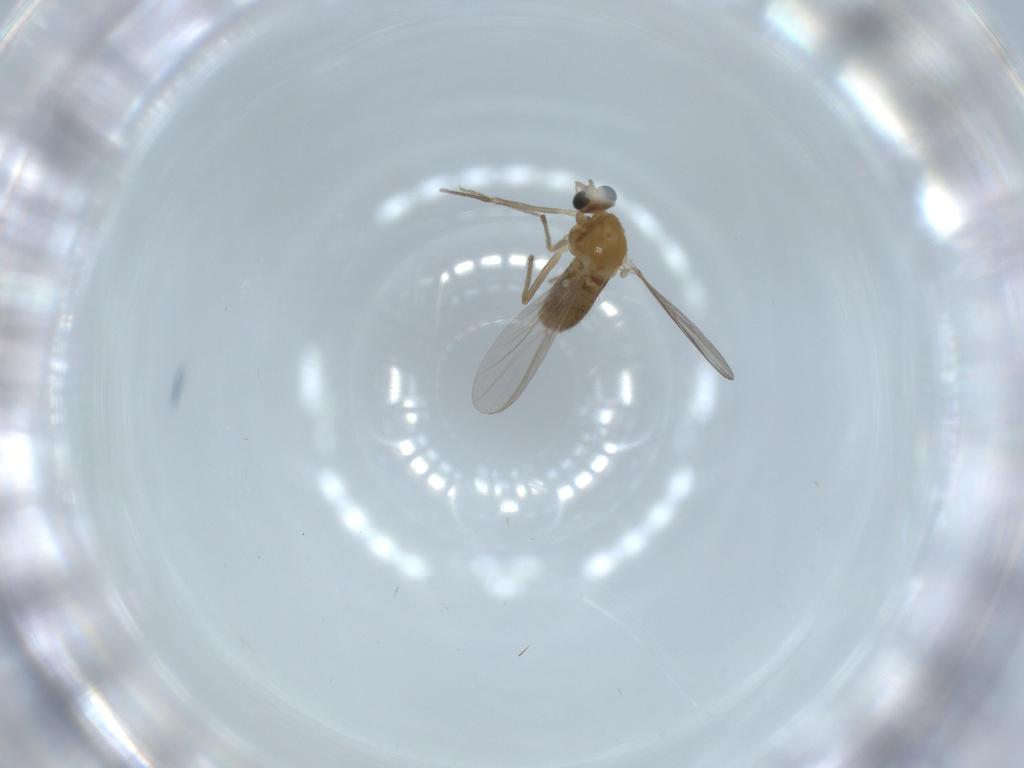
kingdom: Animalia
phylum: Arthropoda
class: Insecta
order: Diptera
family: Chironomidae
